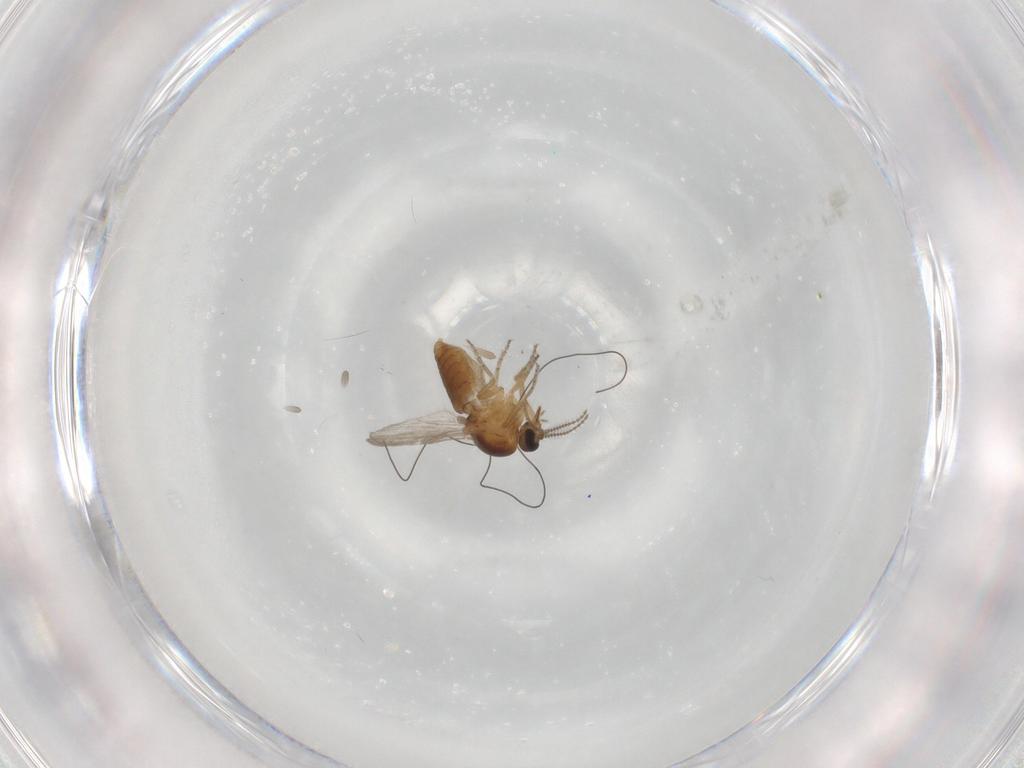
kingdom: Animalia
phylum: Arthropoda
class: Insecta
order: Diptera
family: Ceratopogonidae
